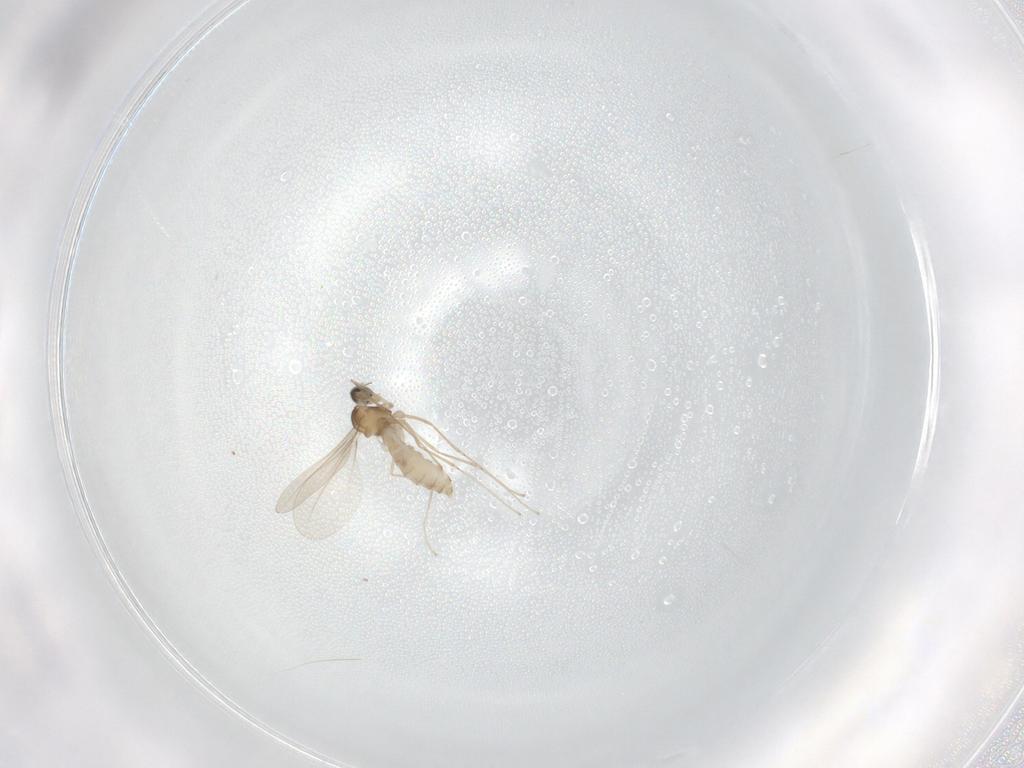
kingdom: Animalia
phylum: Arthropoda
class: Insecta
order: Diptera
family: Cecidomyiidae
